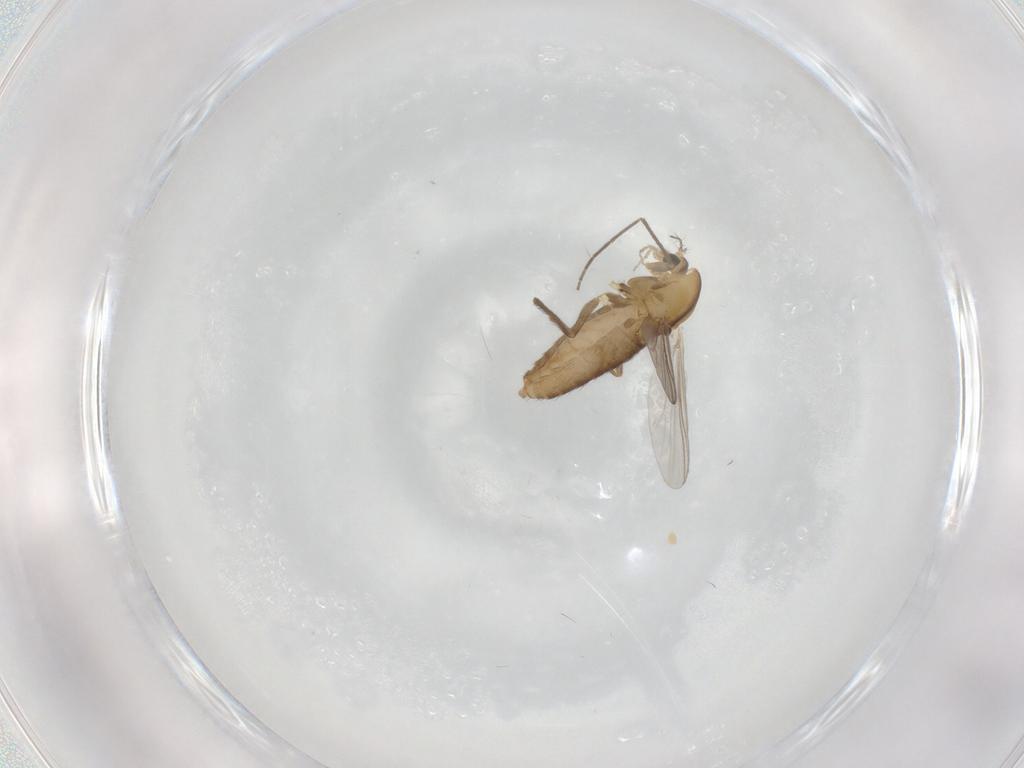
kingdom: Animalia
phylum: Arthropoda
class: Insecta
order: Diptera
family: Chironomidae
